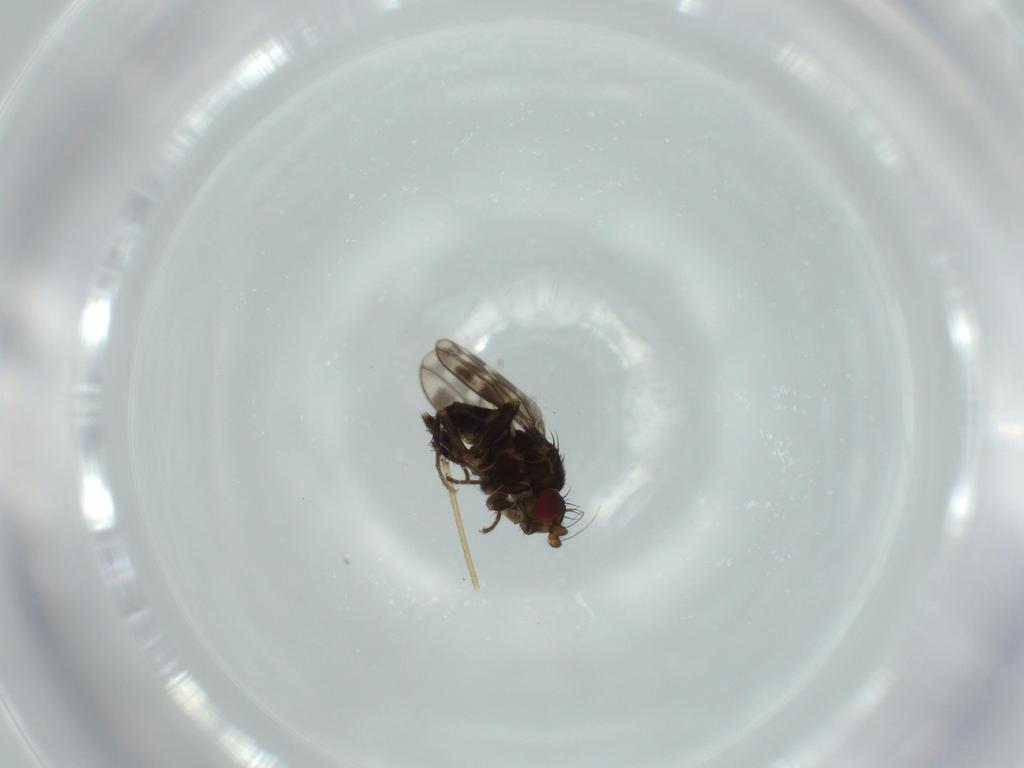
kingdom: Animalia
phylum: Arthropoda
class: Insecta
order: Diptera
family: Sphaeroceridae
